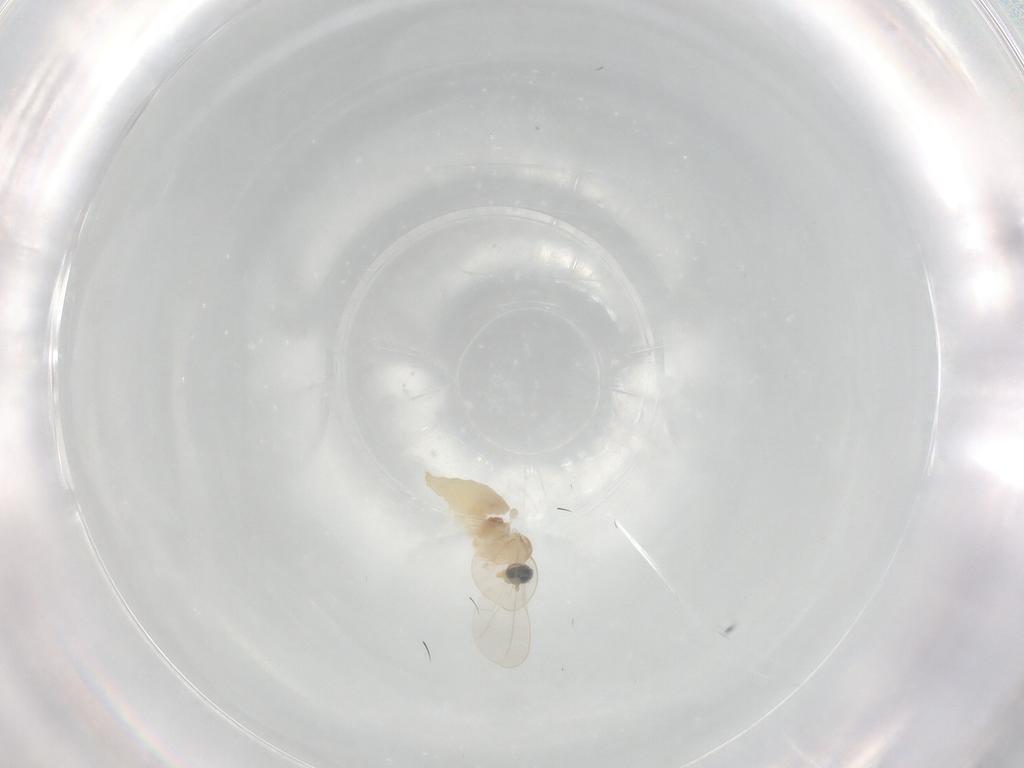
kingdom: Animalia
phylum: Arthropoda
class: Insecta
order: Diptera
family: Cecidomyiidae
